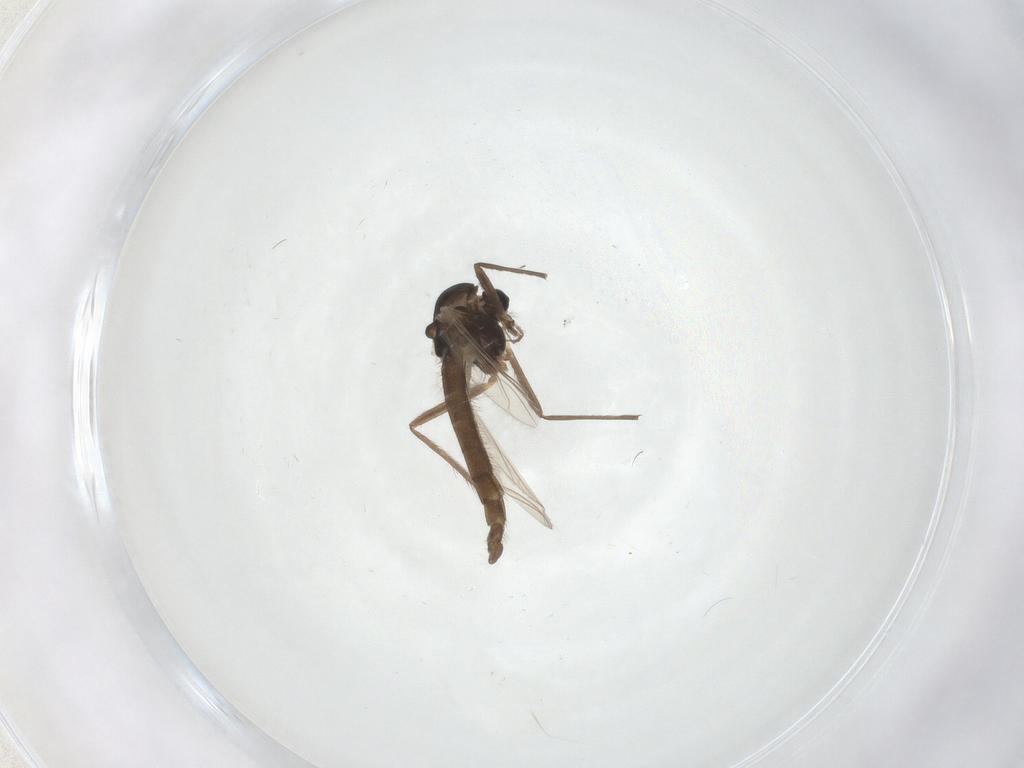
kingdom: Animalia
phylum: Arthropoda
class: Insecta
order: Diptera
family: Chironomidae
